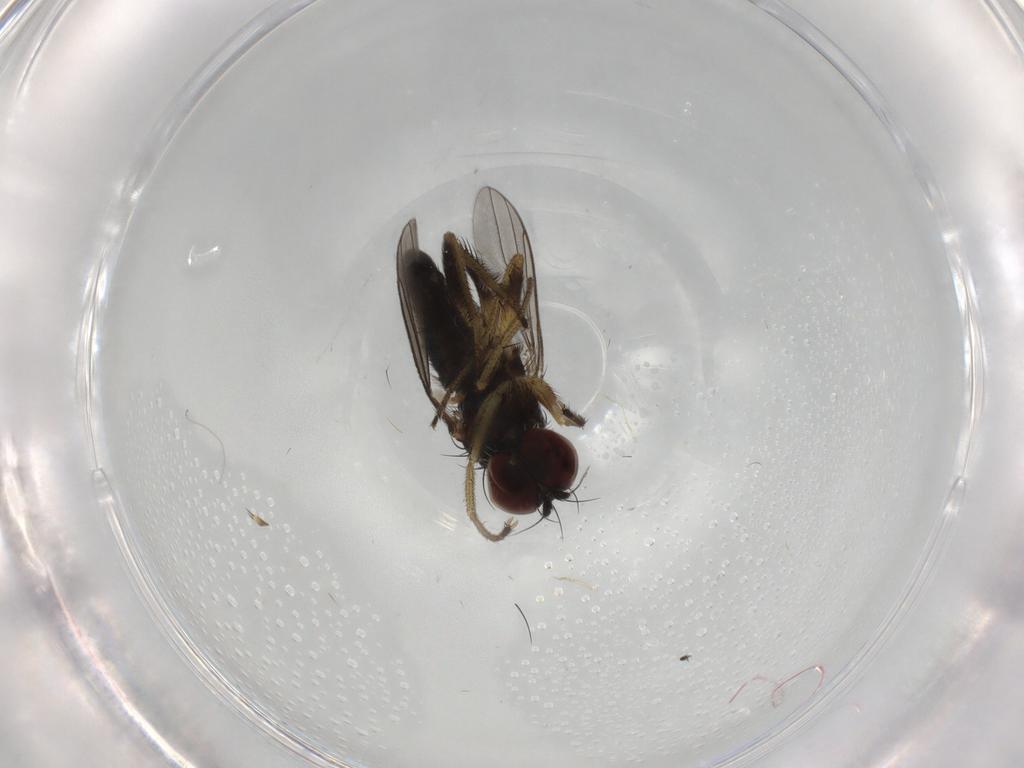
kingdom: Animalia
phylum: Arthropoda
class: Insecta
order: Diptera
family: Dolichopodidae
